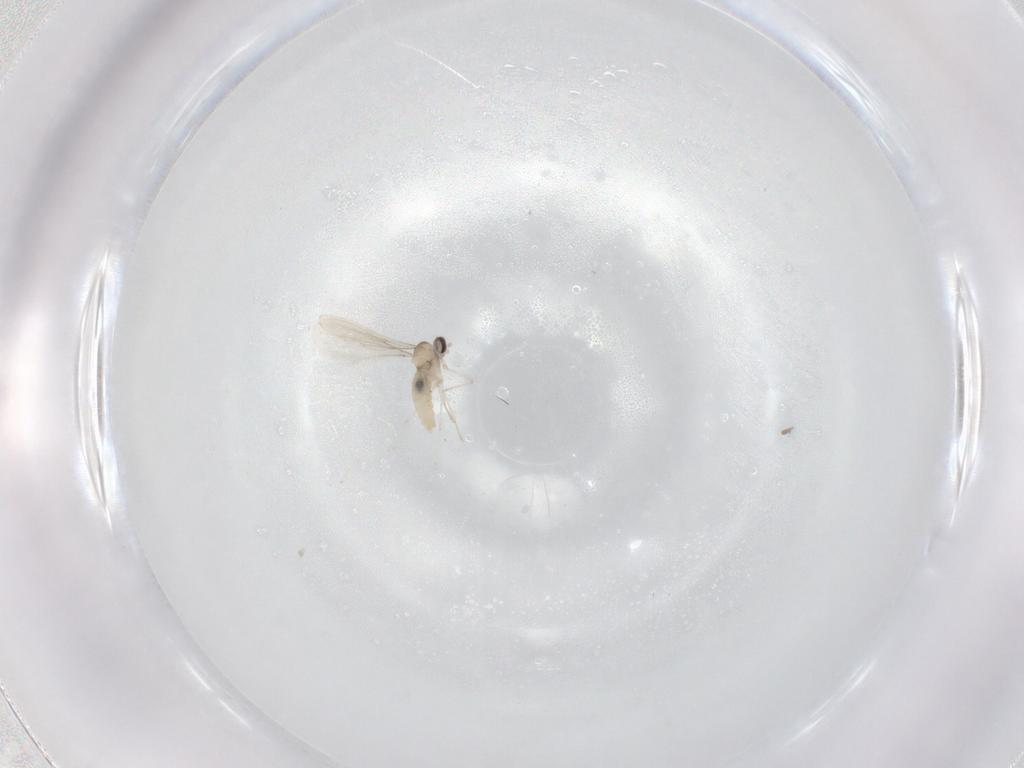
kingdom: Animalia
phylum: Arthropoda
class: Insecta
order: Diptera
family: Cecidomyiidae
